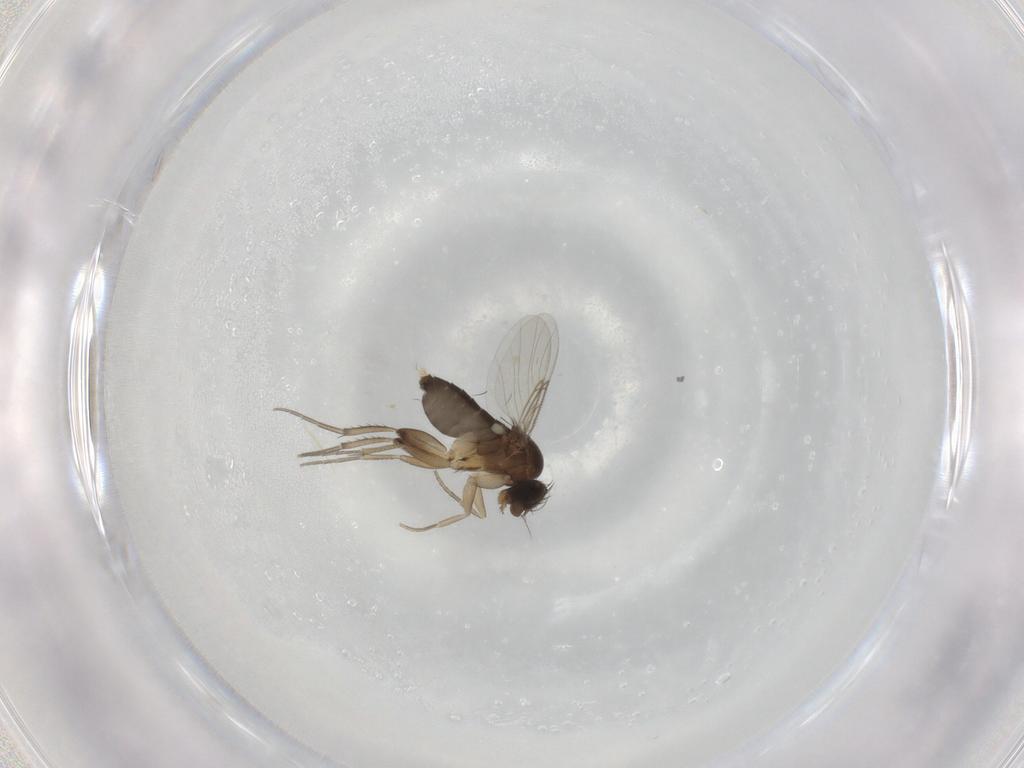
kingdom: Animalia
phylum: Arthropoda
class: Insecta
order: Diptera
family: Phoridae
